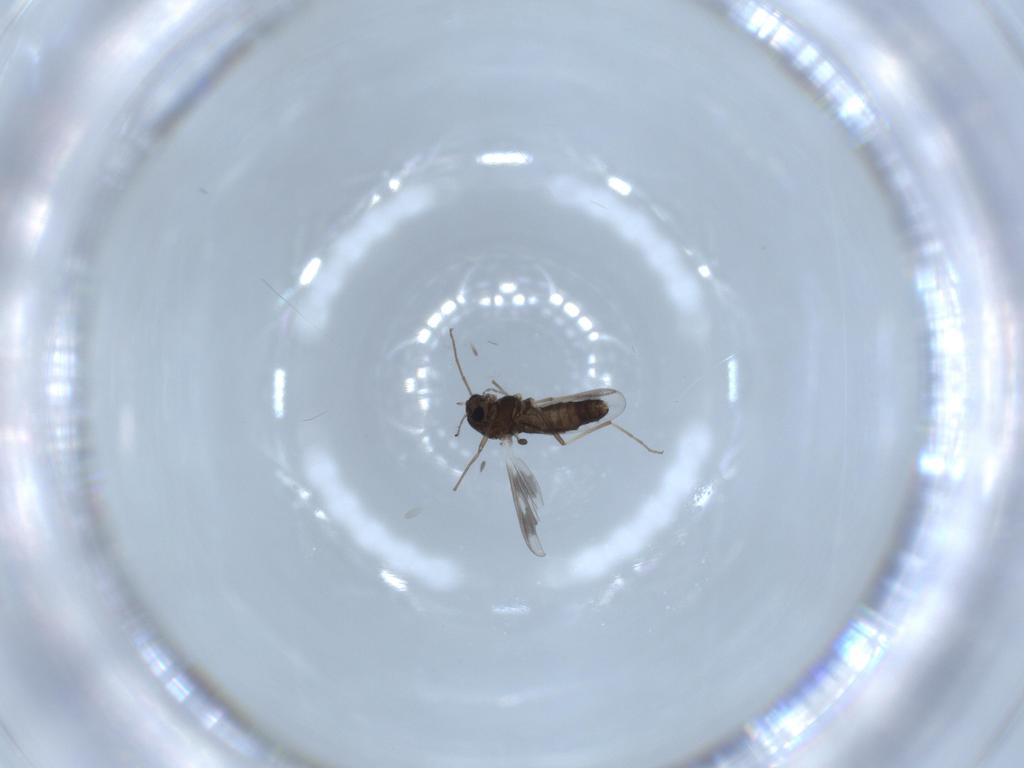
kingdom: Animalia
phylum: Arthropoda
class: Insecta
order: Diptera
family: Chironomidae
